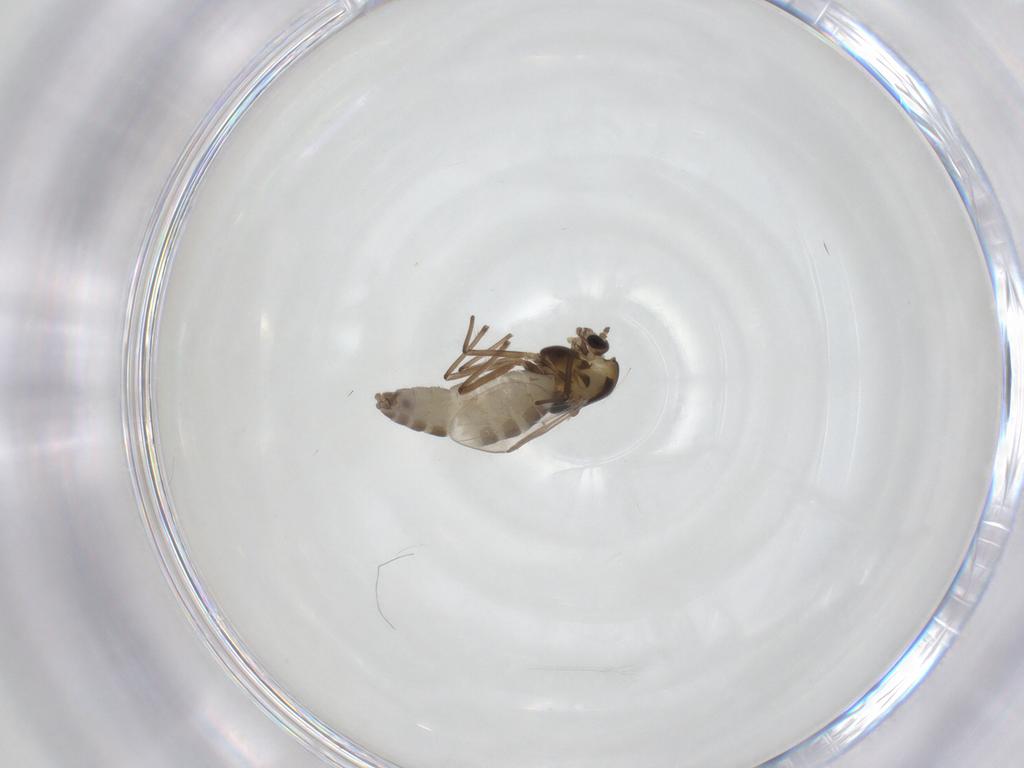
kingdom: Animalia
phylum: Arthropoda
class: Insecta
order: Diptera
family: Chironomidae
